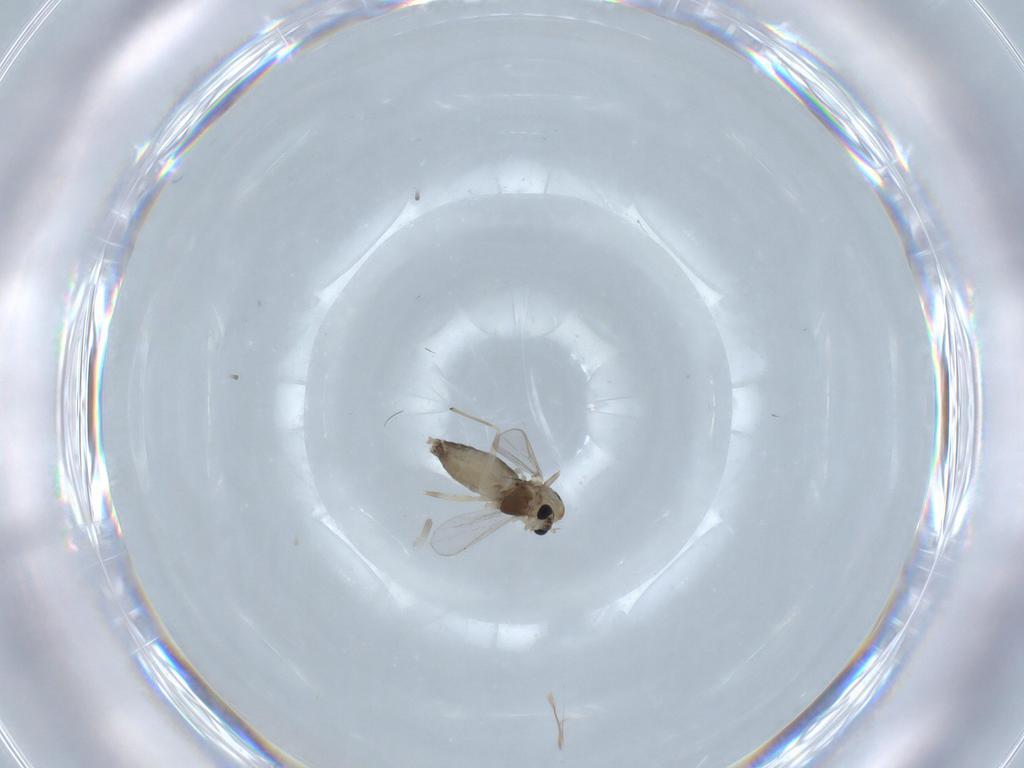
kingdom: Animalia
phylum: Arthropoda
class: Insecta
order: Diptera
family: Chironomidae
